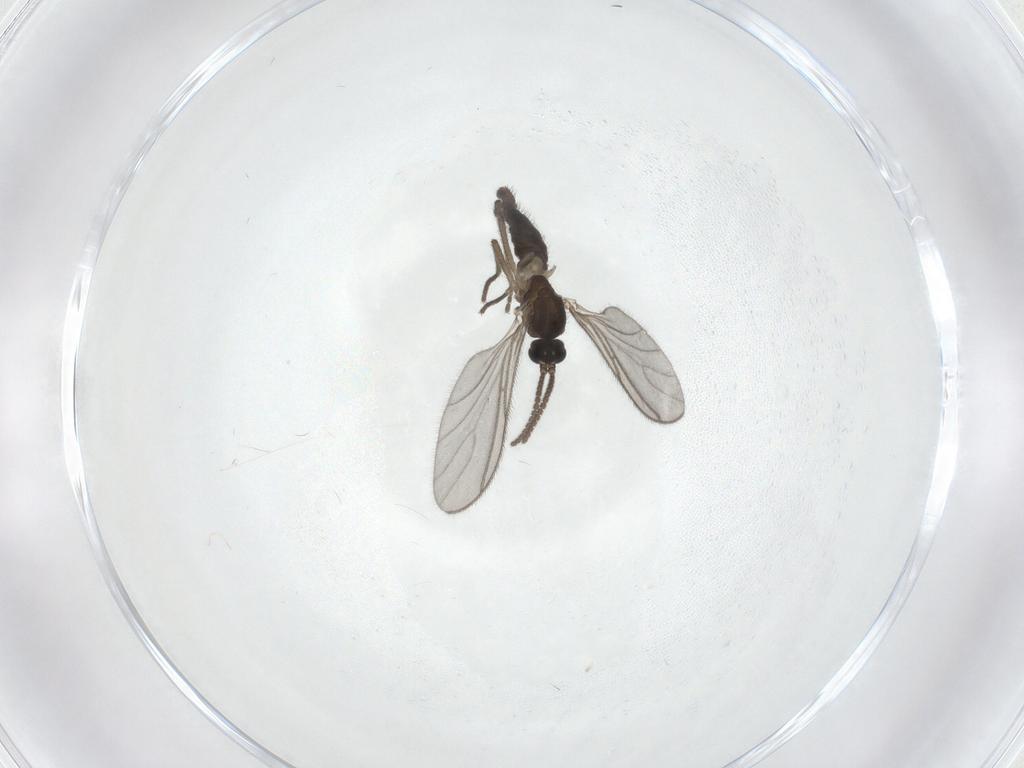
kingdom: Animalia
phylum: Arthropoda
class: Insecta
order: Diptera
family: Sciaridae
